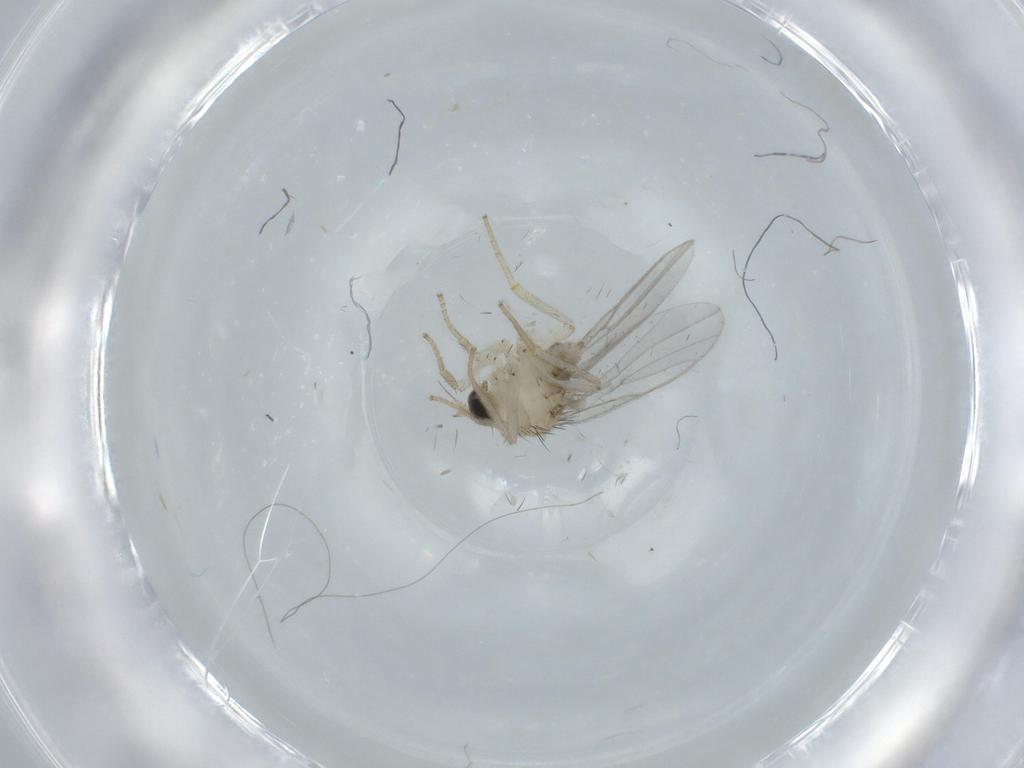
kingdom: Animalia
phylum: Arthropoda
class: Insecta
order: Diptera
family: Hybotidae
